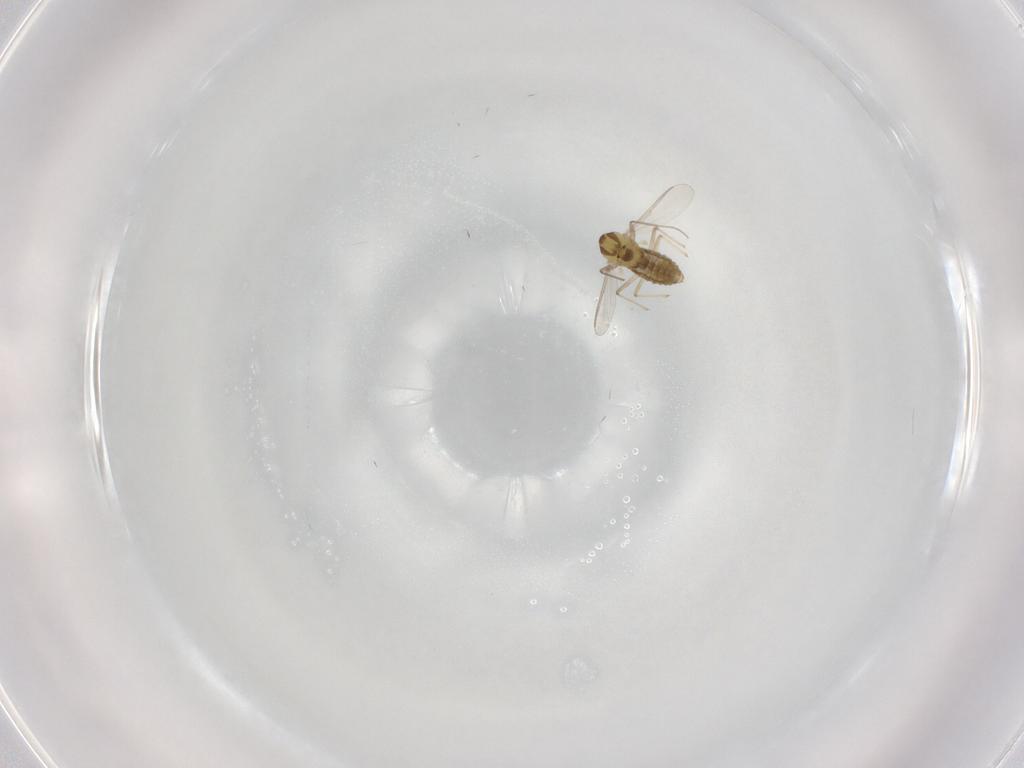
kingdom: Animalia
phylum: Arthropoda
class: Insecta
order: Diptera
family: Chironomidae
